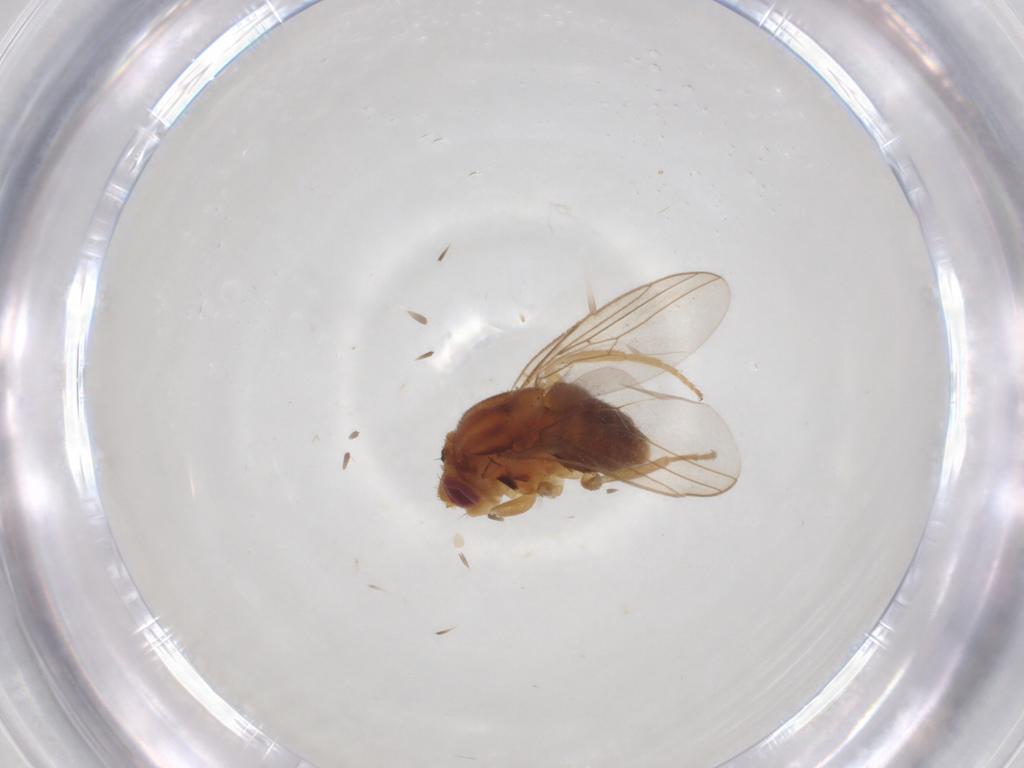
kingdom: Animalia
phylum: Arthropoda
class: Insecta
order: Diptera
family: Chloropidae
